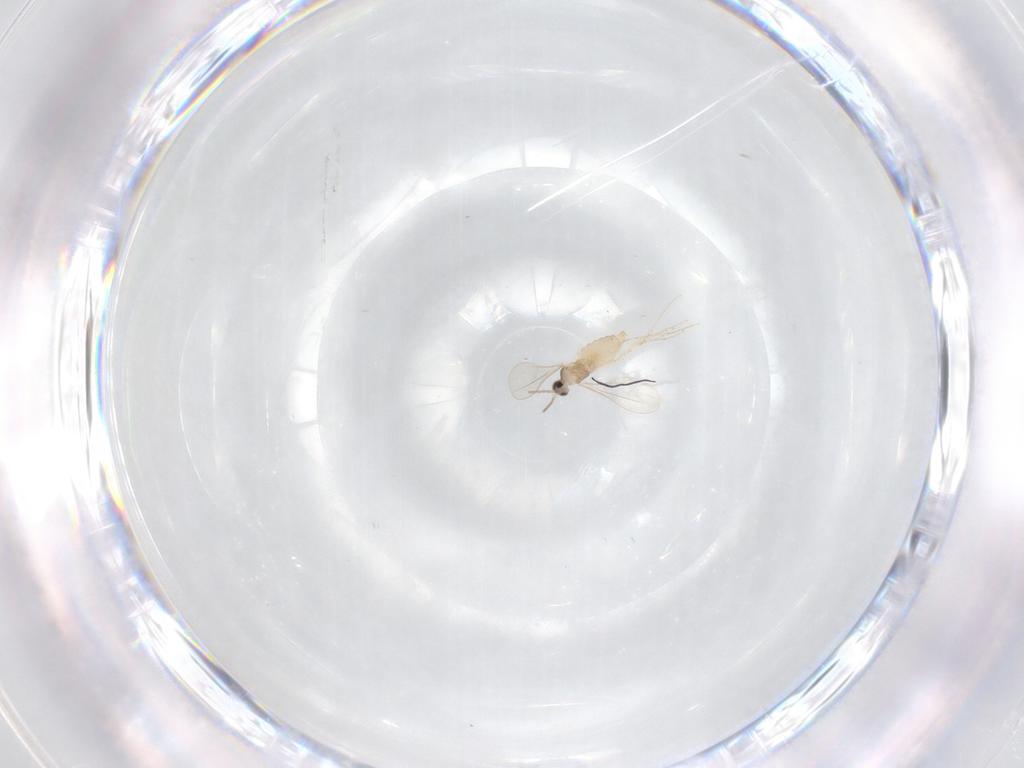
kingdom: Animalia
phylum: Arthropoda
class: Insecta
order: Diptera
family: Cecidomyiidae
